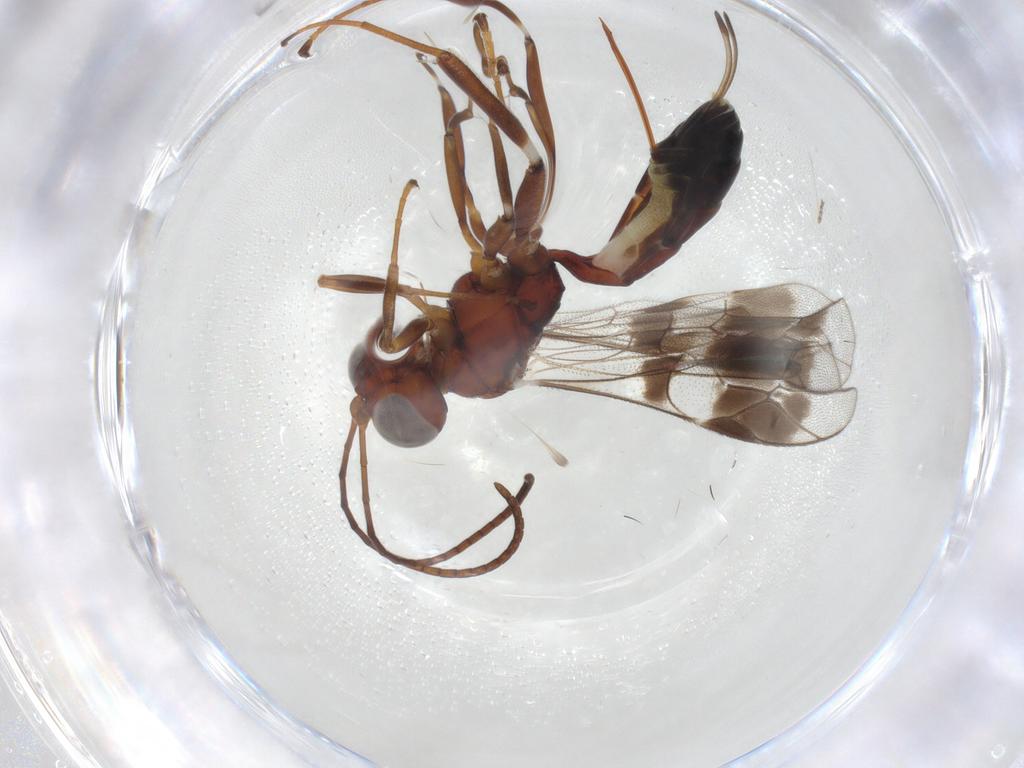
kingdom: Animalia
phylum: Arthropoda
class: Insecta
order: Hymenoptera
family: Ichneumonidae
